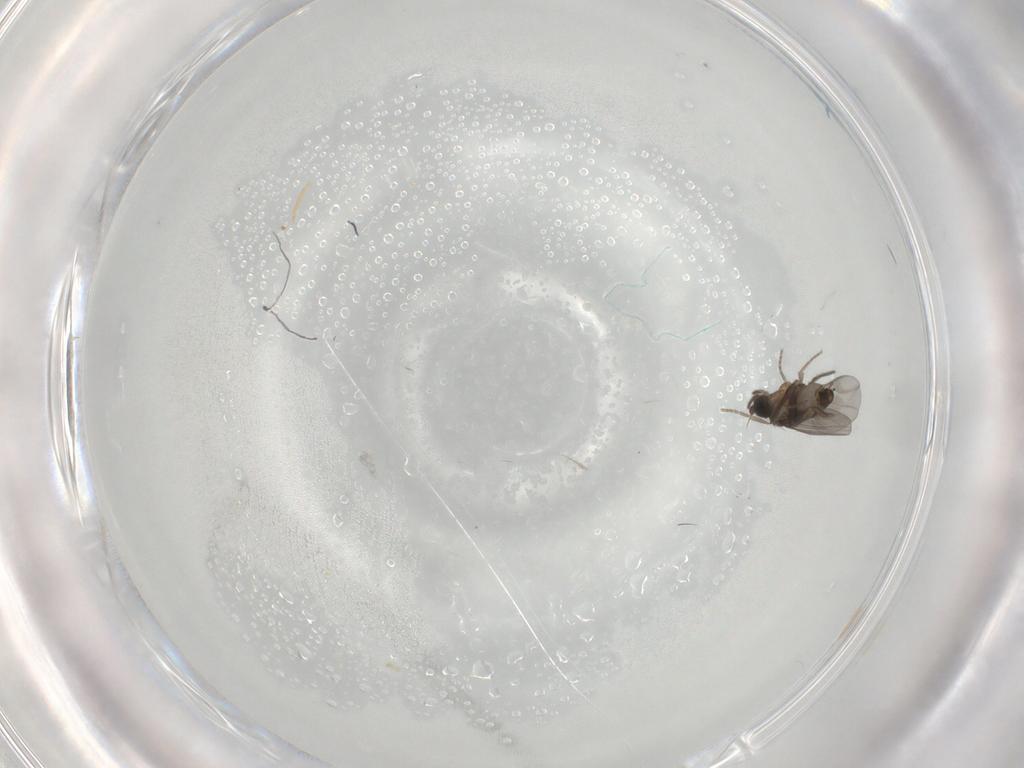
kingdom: Animalia
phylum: Arthropoda
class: Insecta
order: Diptera
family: Phoridae
